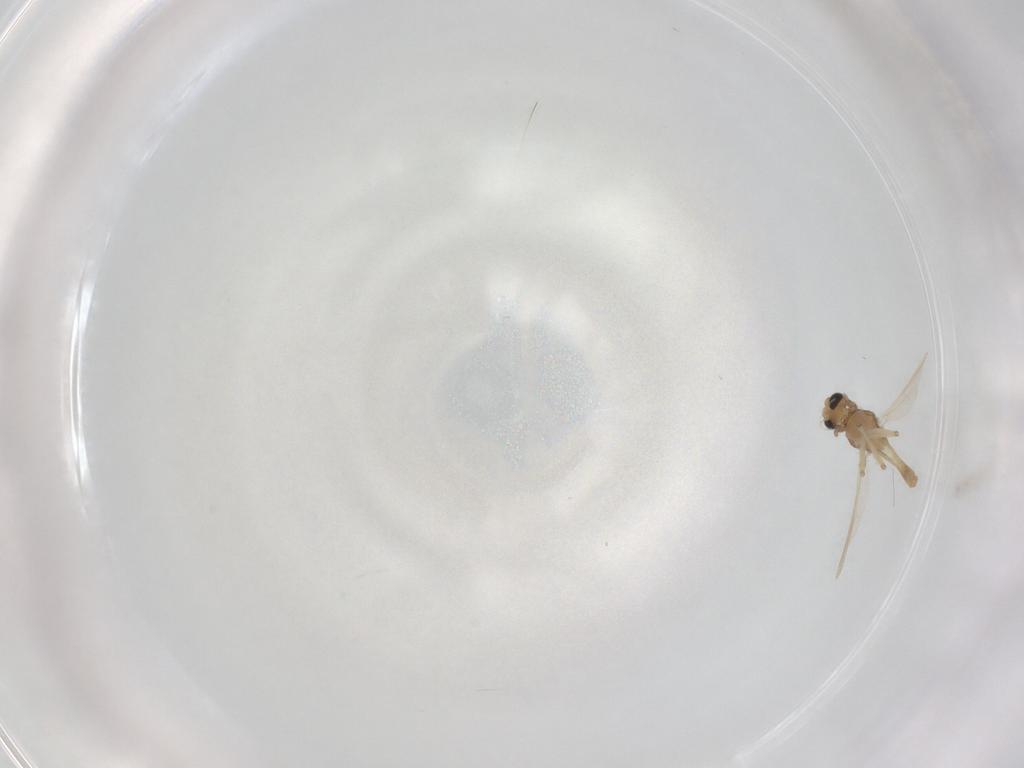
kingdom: Animalia
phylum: Arthropoda
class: Insecta
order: Diptera
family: Chironomidae
